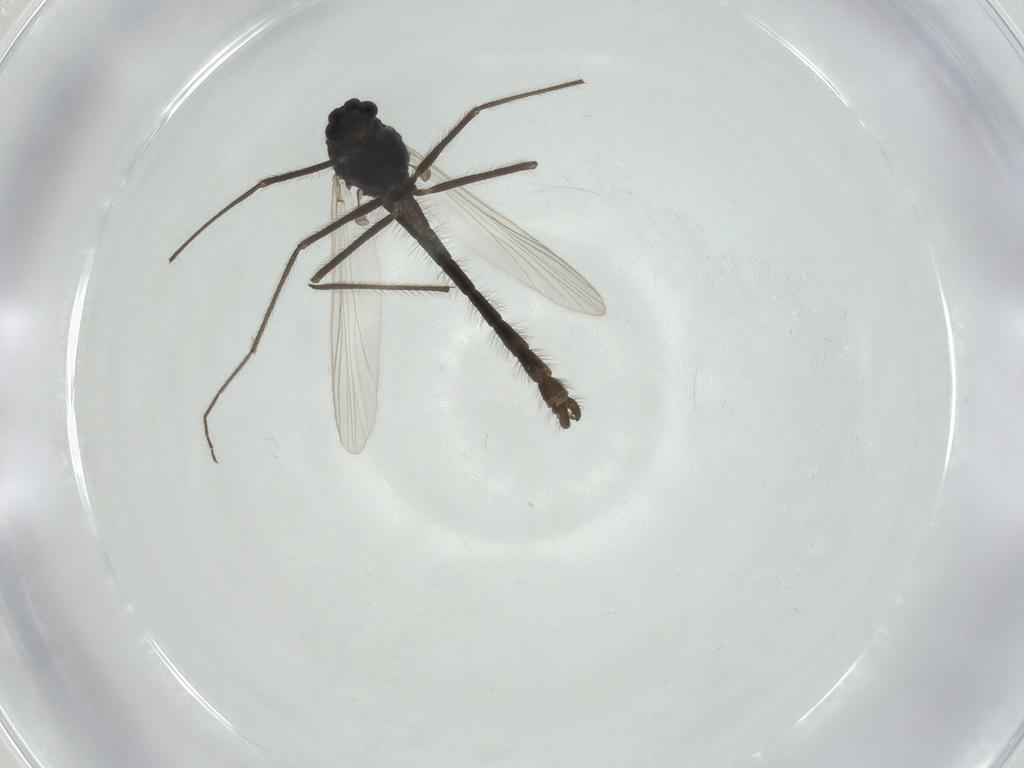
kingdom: Animalia
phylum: Arthropoda
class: Insecta
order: Diptera
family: Chironomidae
